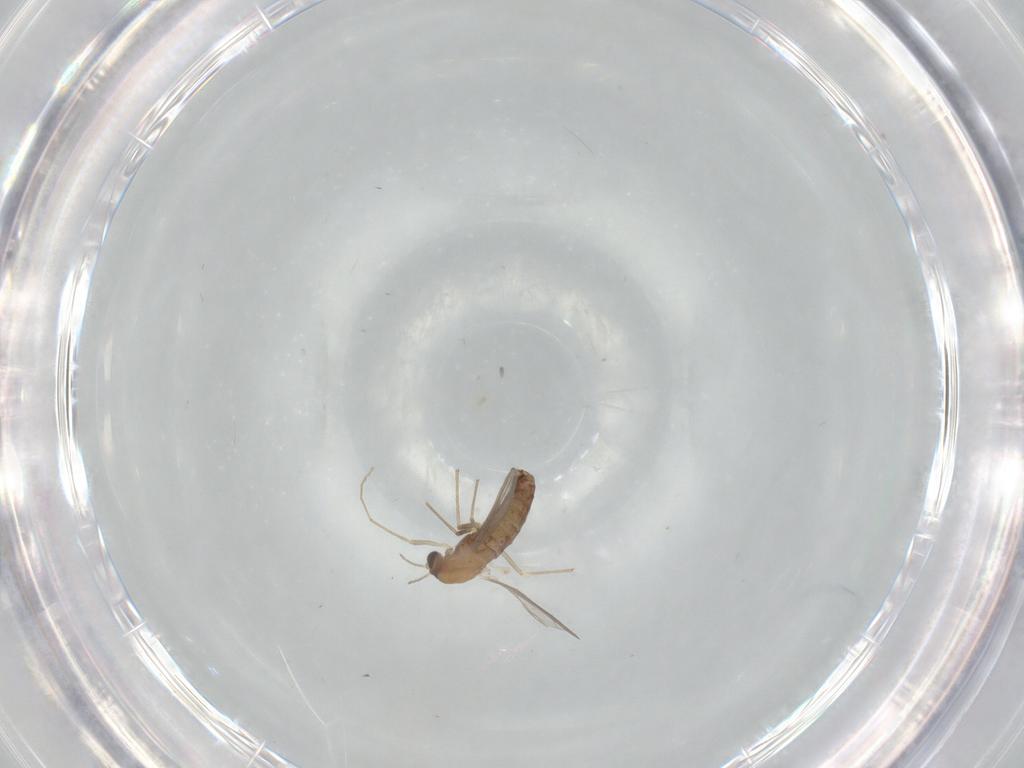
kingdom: Animalia
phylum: Arthropoda
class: Insecta
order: Diptera
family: Chironomidae
